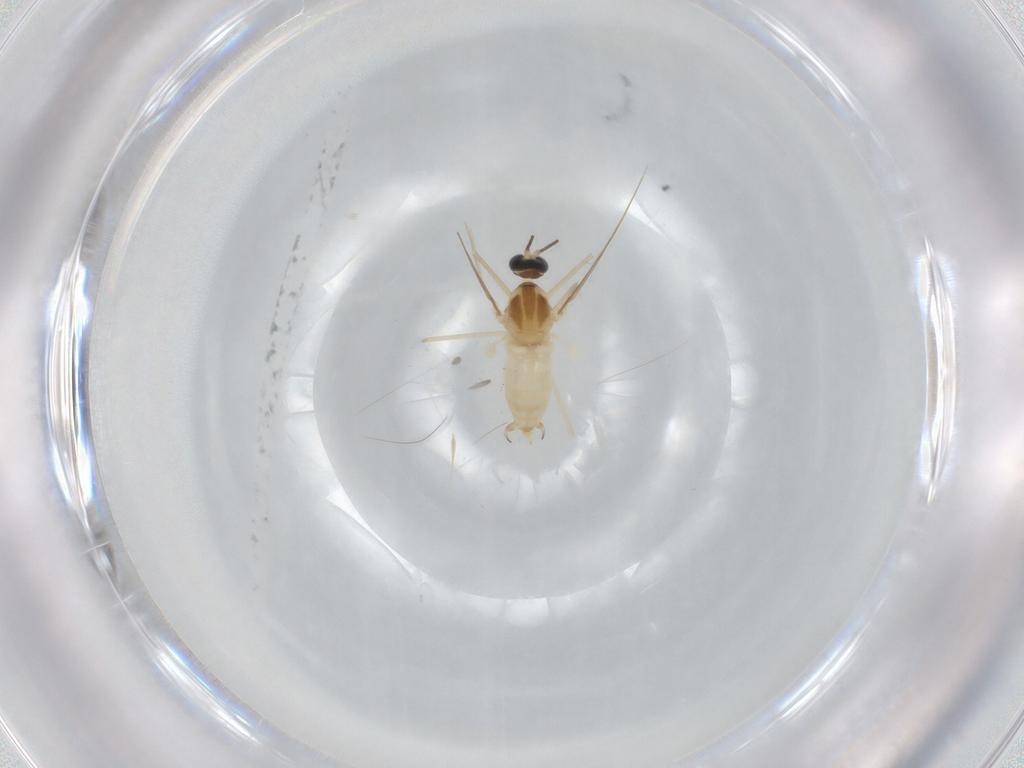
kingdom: Animalia
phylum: Arthropoda
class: Insecta
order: Diptera
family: Cecidomyiidae
